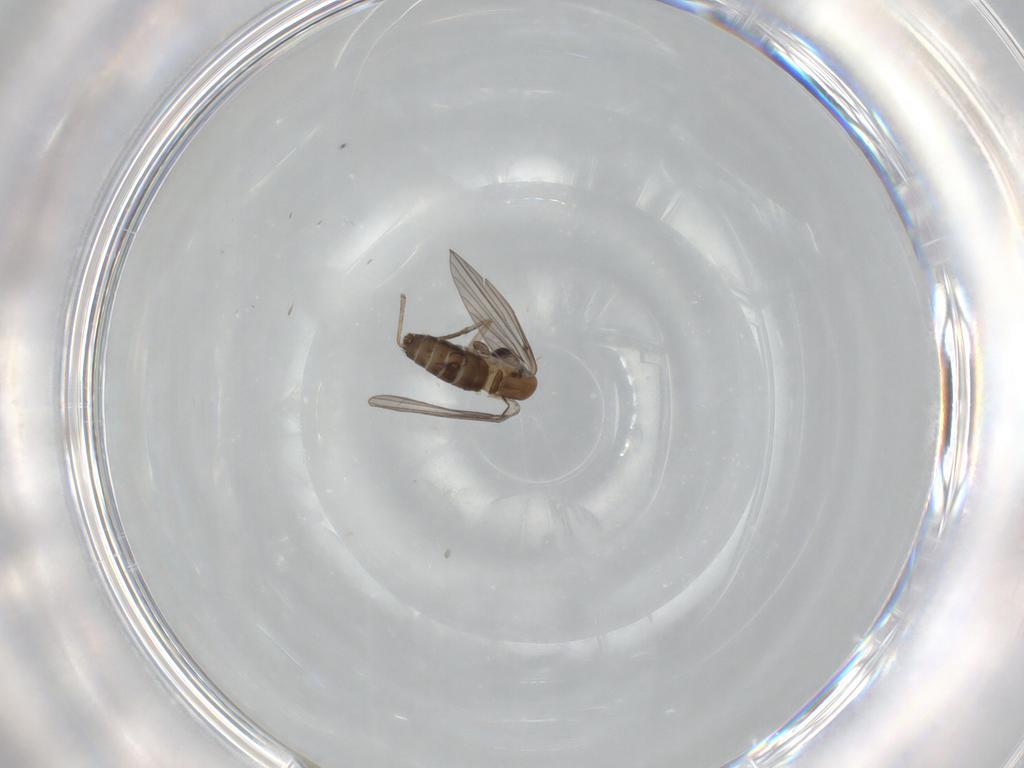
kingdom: Animalia
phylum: Arthropoda
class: Insecta
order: Diptera
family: Psychodidae
